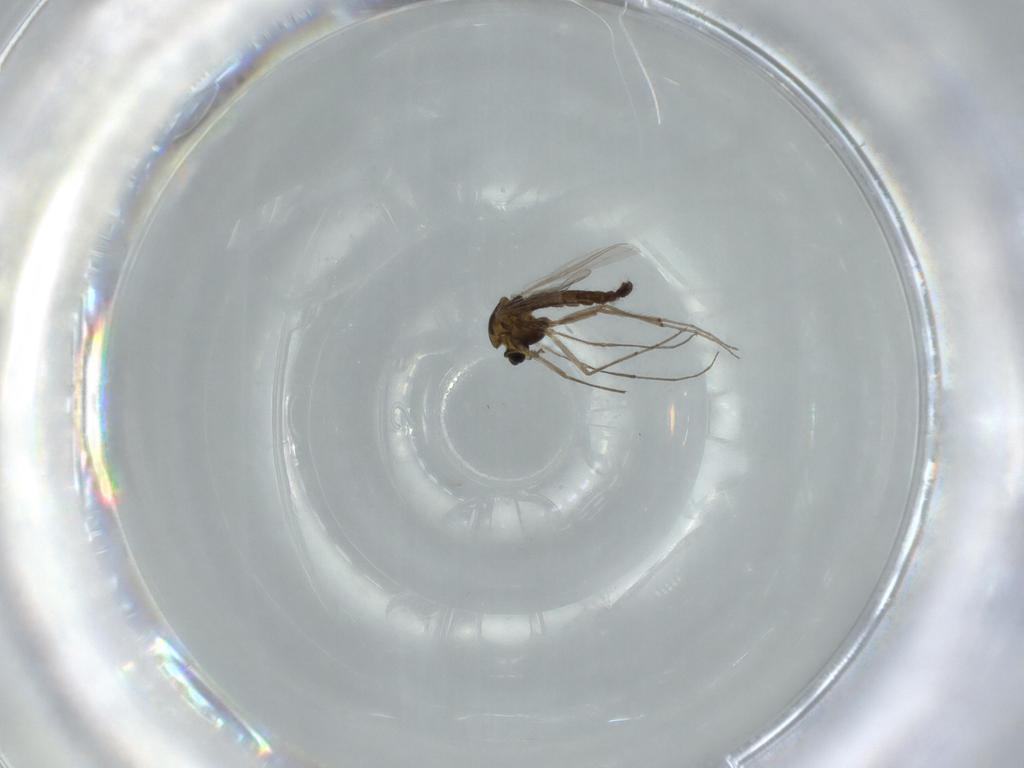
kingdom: Animalia
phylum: Arthropoda
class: Insecta
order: Diptera
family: Chironomidae
